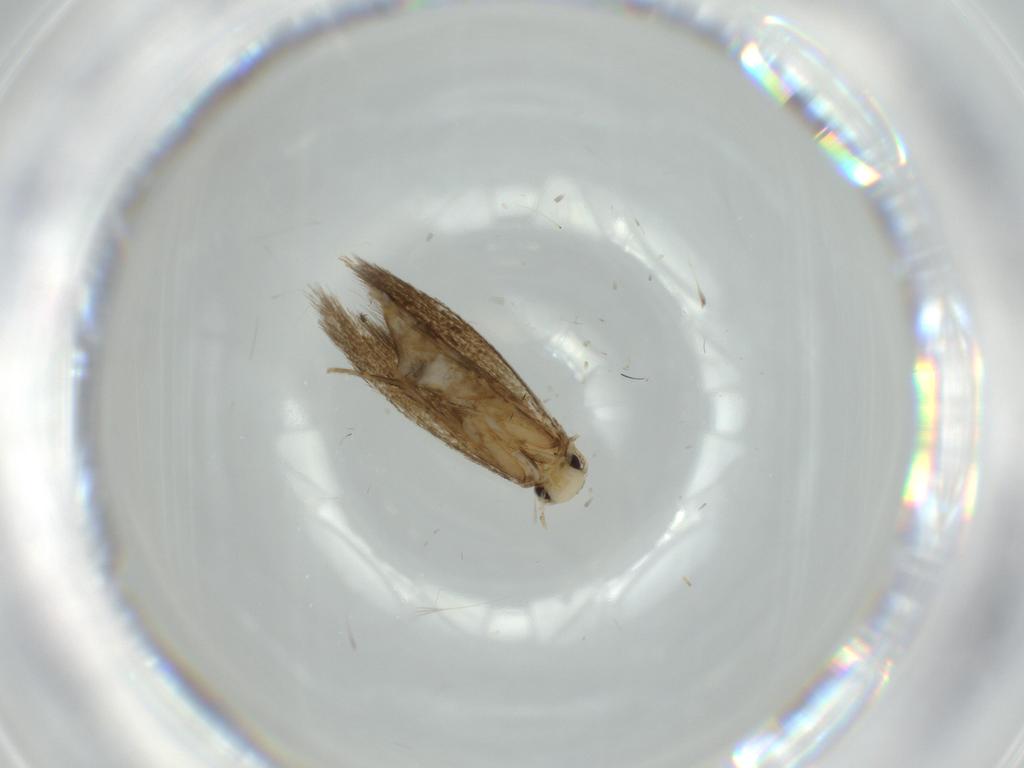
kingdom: Animalia
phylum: Arthropoda
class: Insecta
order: Lepidoptera
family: Tineidae
